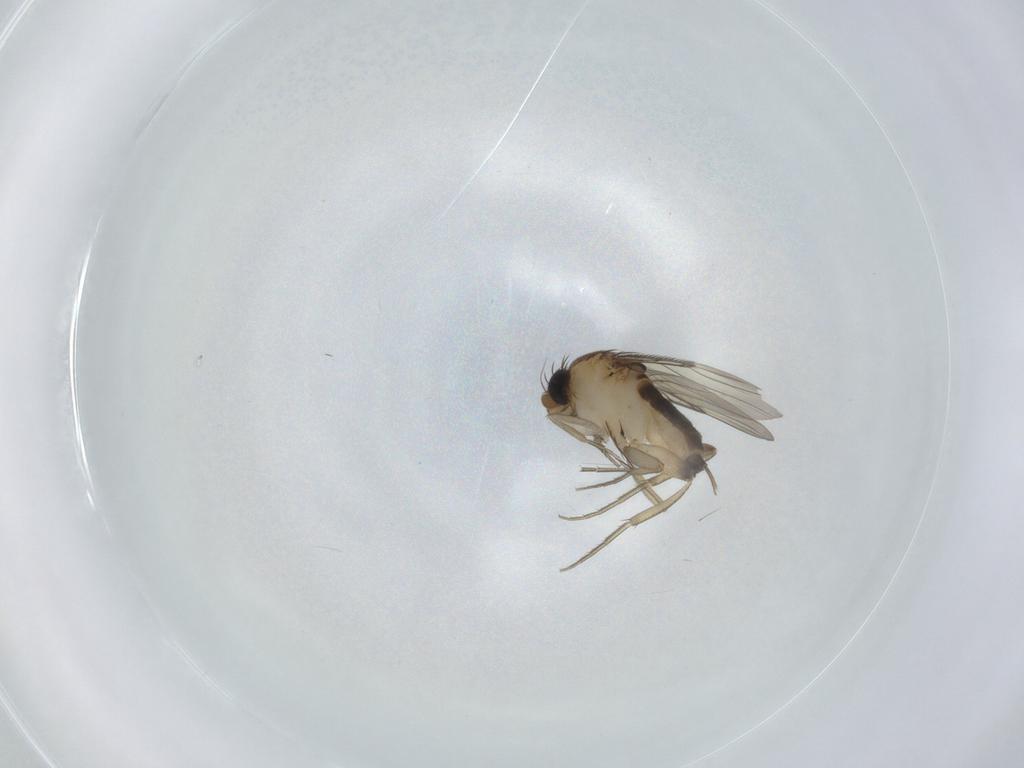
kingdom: Animalia
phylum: Arthropoda
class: Insecta
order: Diptera
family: Phoridae
